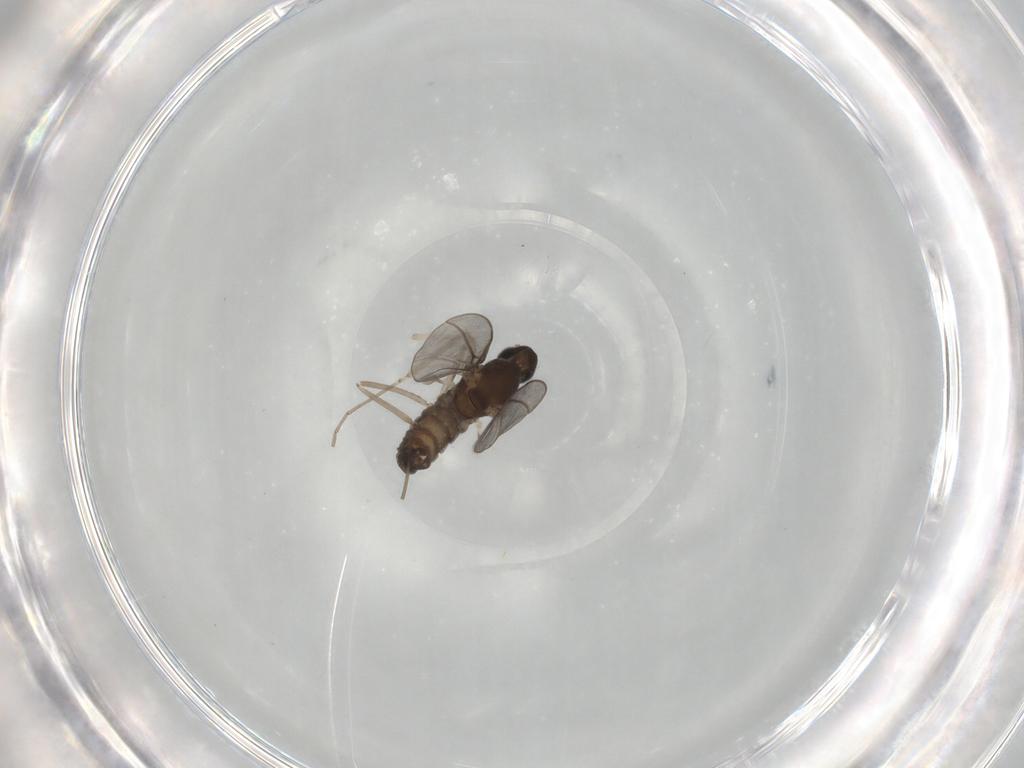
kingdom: Animalia
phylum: Arthropoda
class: Insecta
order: Diptera
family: Cecidomyiidae
